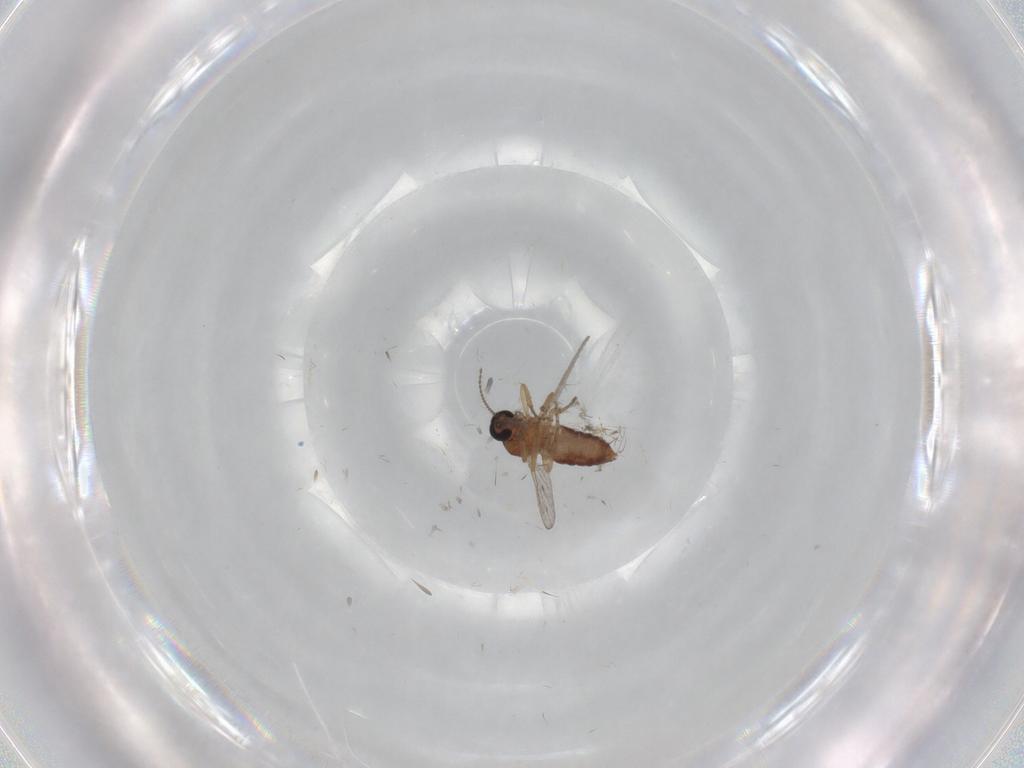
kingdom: Animalia
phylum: Arthropoda
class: Insecta
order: Diptera
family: Ceratopogonidae
